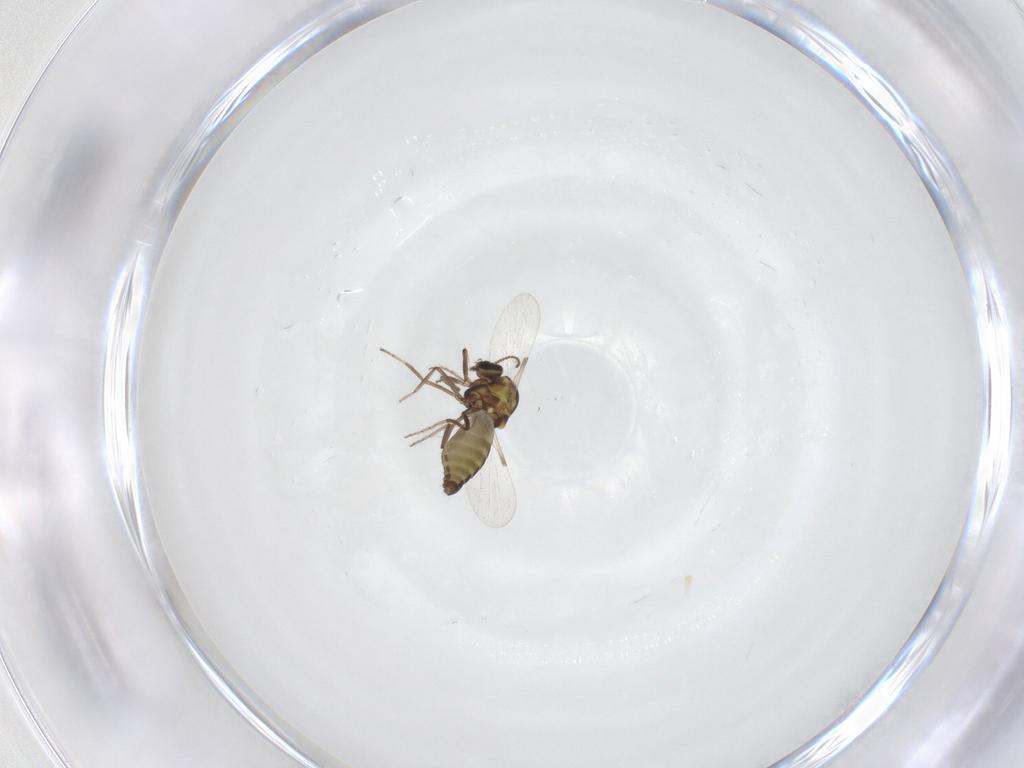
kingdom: Animalia
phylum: Arthropoda
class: Insecta
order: Diptera
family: Ceratopogonidae
